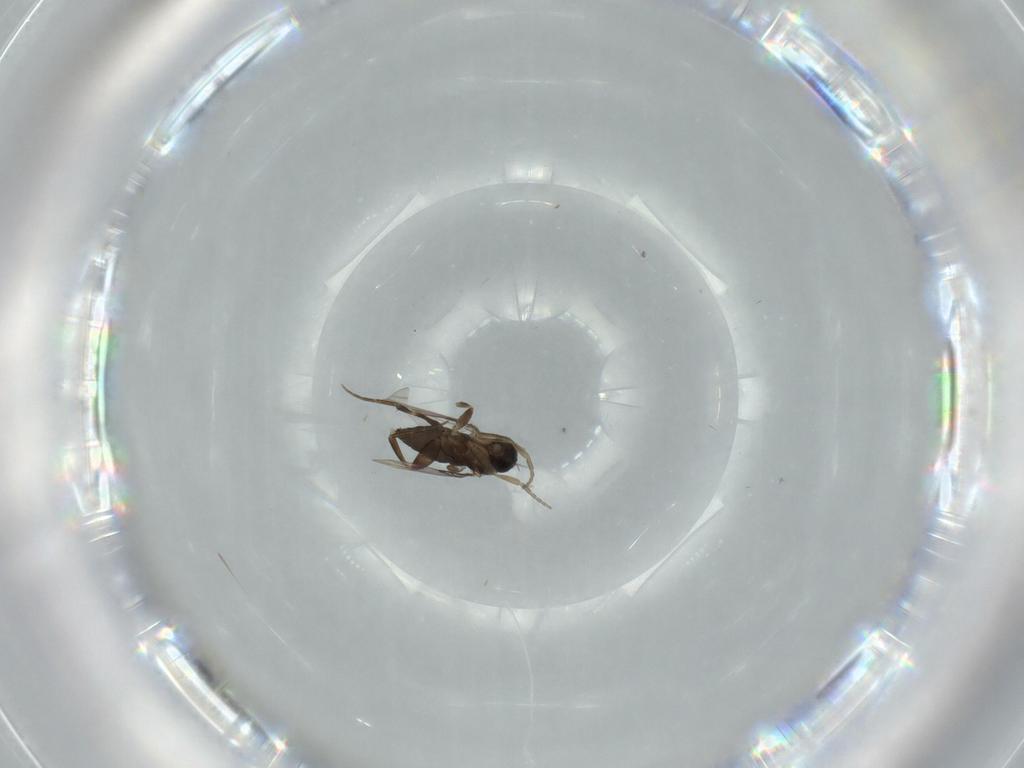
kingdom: Animalia
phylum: Arthropoda
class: Insecta
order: Diptera
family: Phoridae
